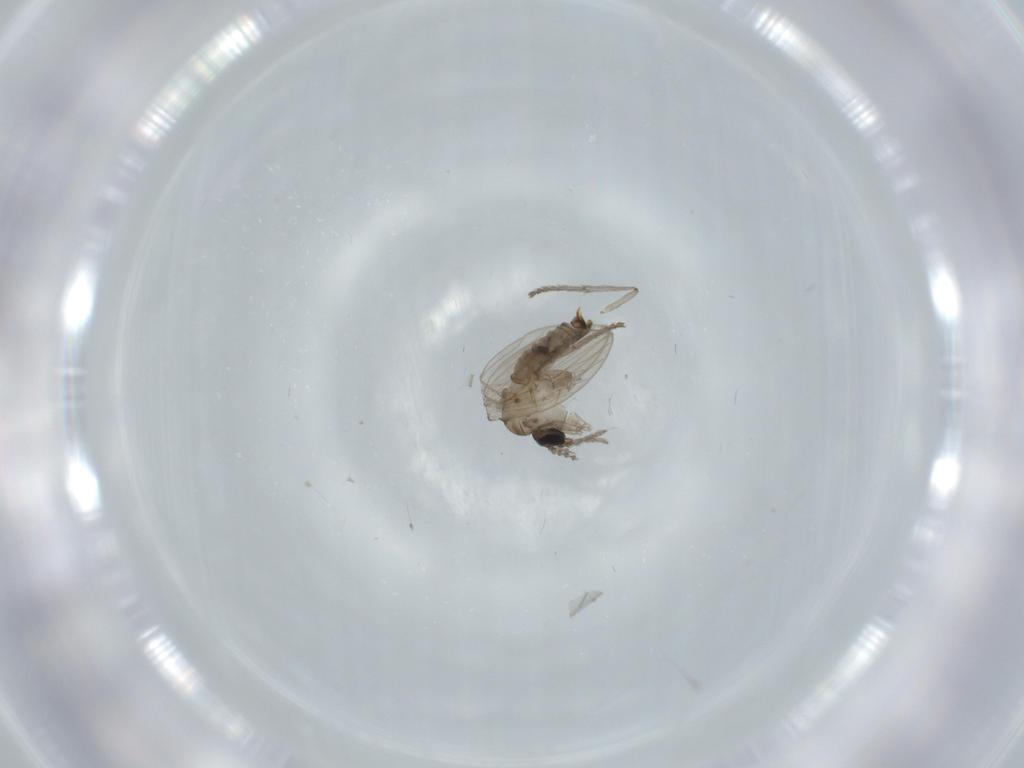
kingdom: Animalia
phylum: Arthropoda
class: Insecta
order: Diptera
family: Psychodidae
